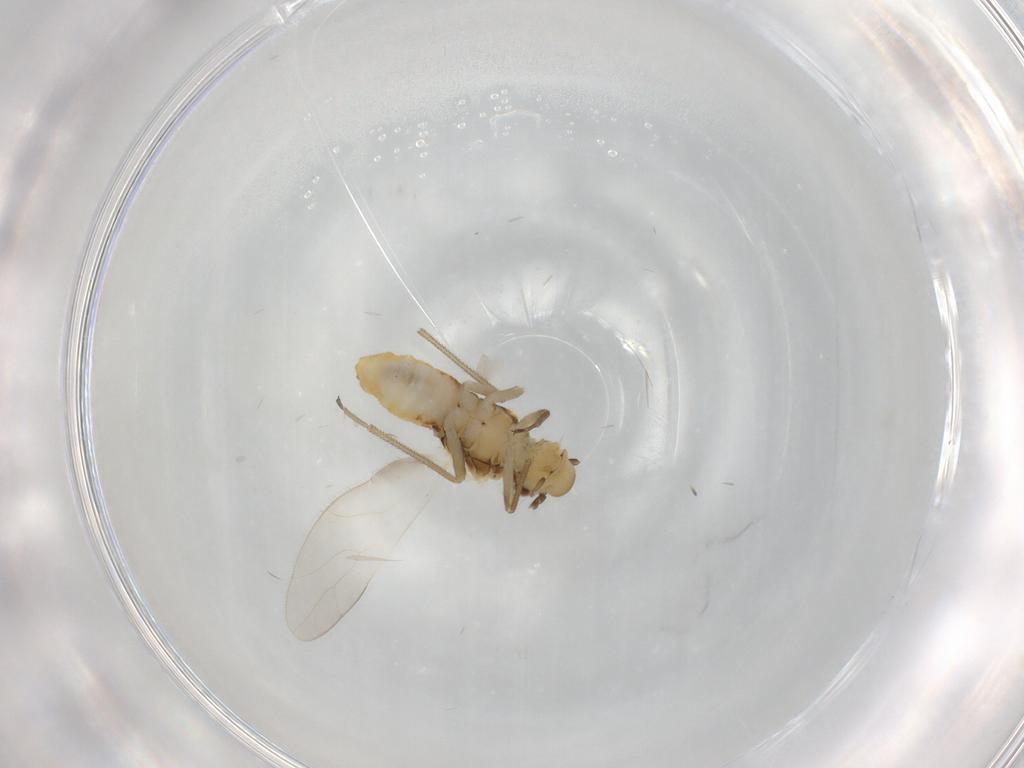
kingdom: Animalia
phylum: Arthropoda
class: Insecta
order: Psocodea
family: Caeciliusidae
